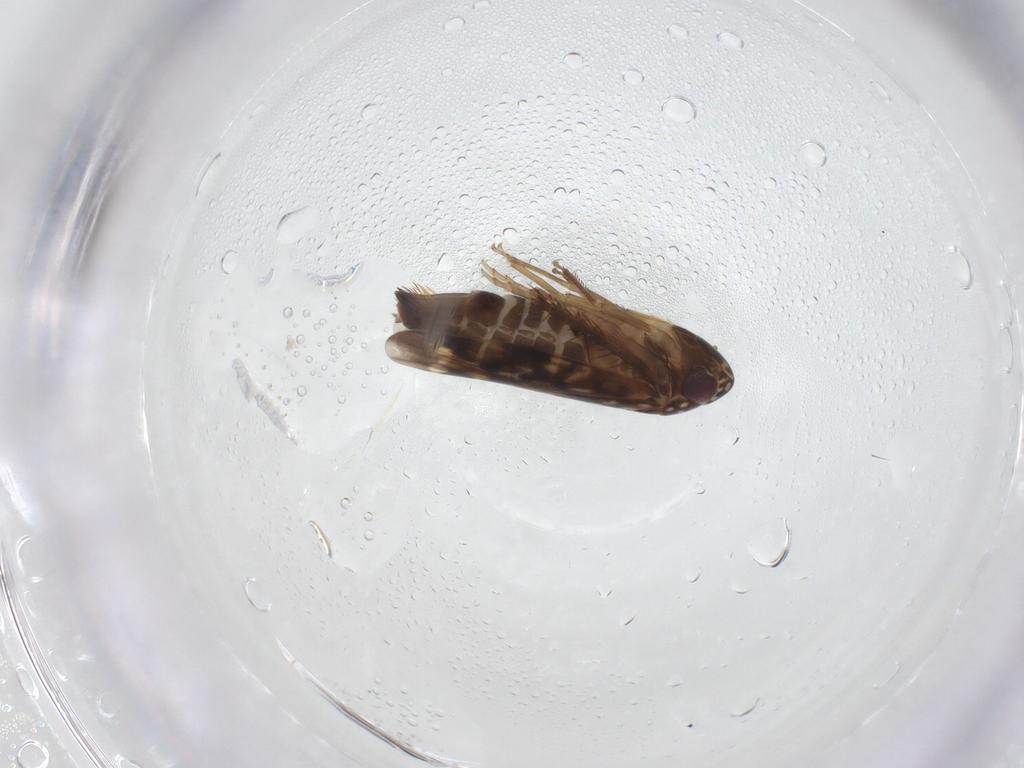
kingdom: Animalia
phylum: Arthropoda
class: Insecta
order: Hemiptera
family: Cicadellidae
